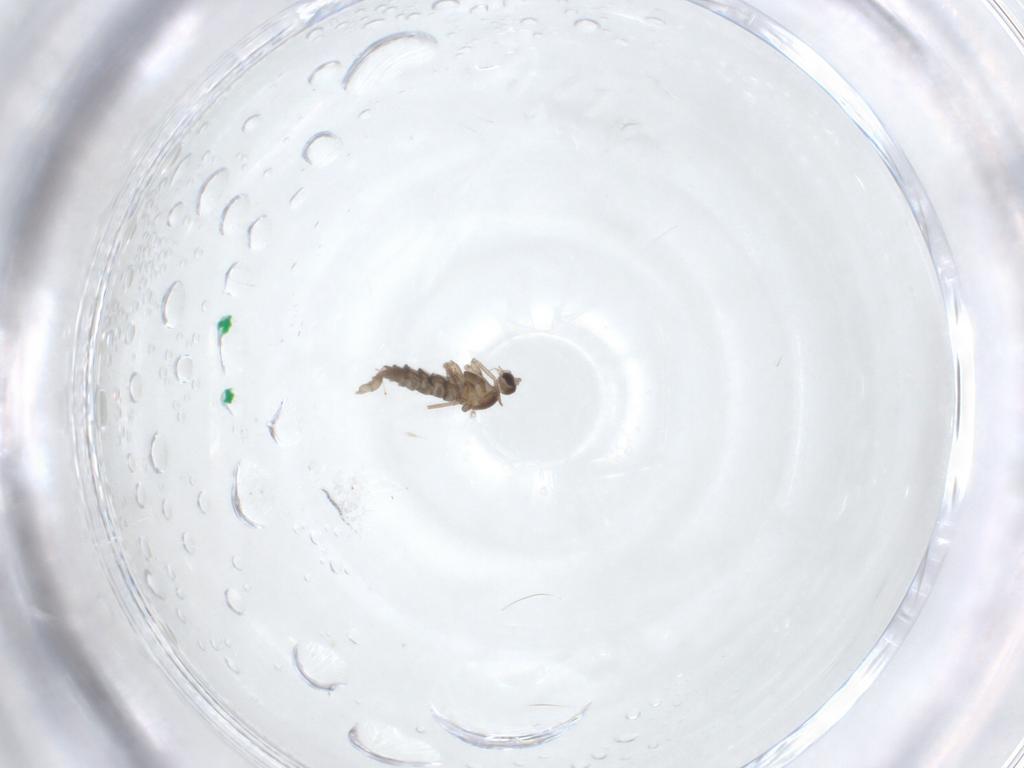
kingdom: Animalia
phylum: Arthropoda
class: Insecta
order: Diptera
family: Cecidomyiidae
